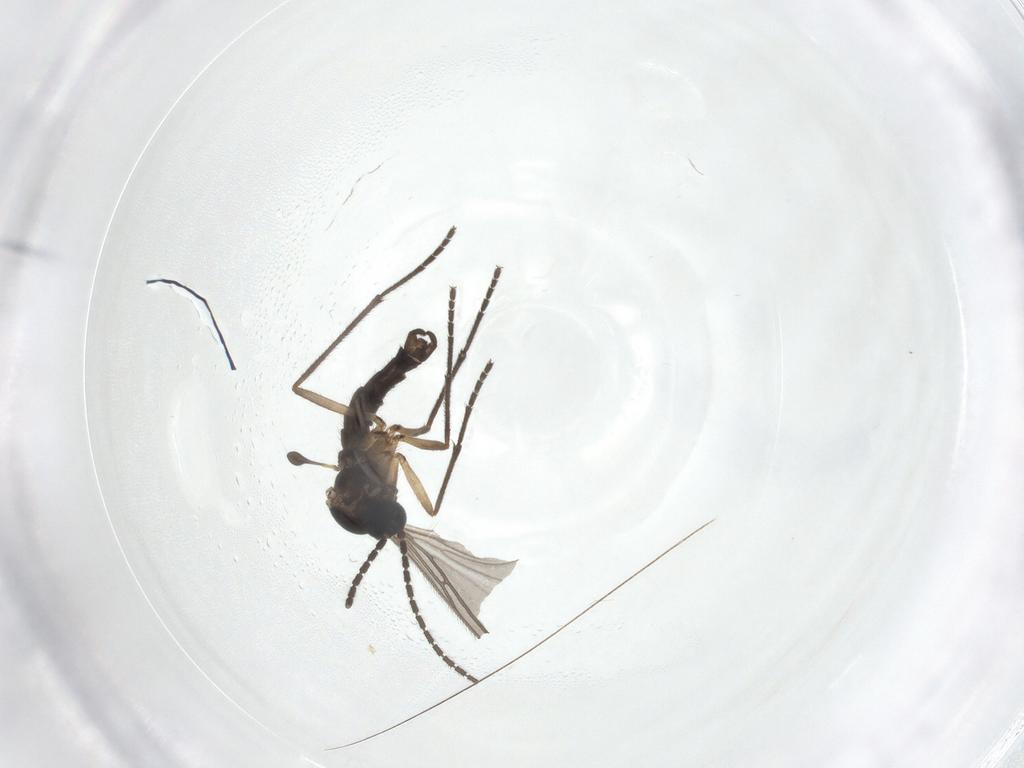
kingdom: Animalia
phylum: Arthropoda
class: Insecta
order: Diptera
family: Sciaridae
